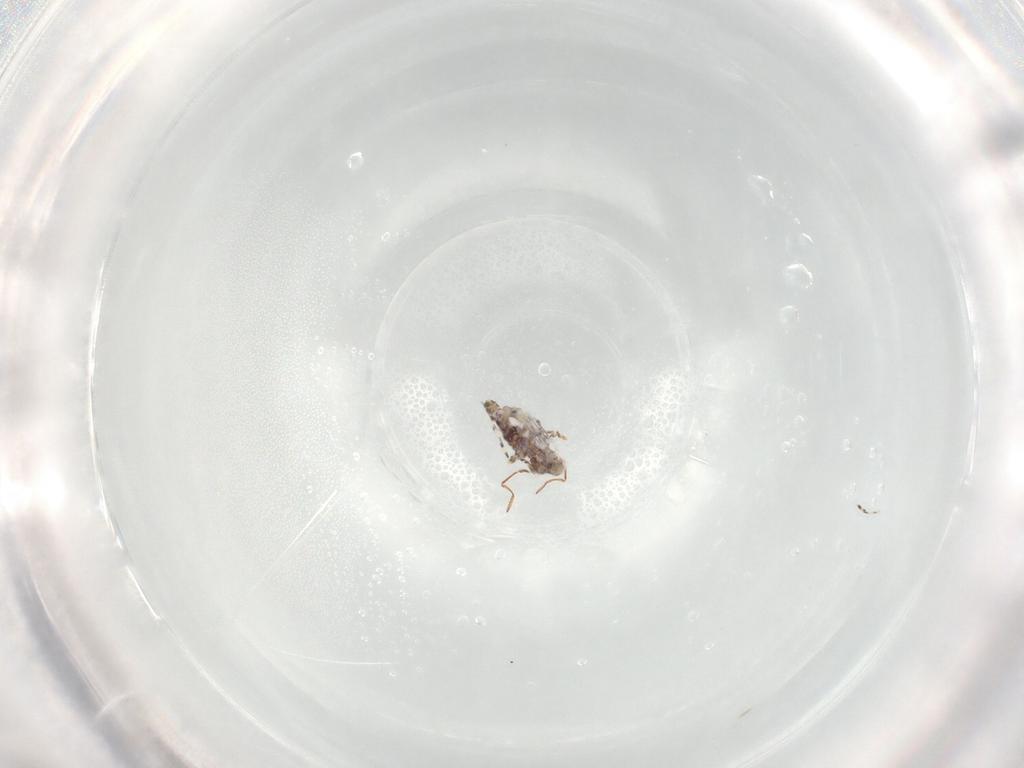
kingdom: Animalia
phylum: Arthropoda
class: Collembola
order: Symphypleona
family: Bourletiellidae
